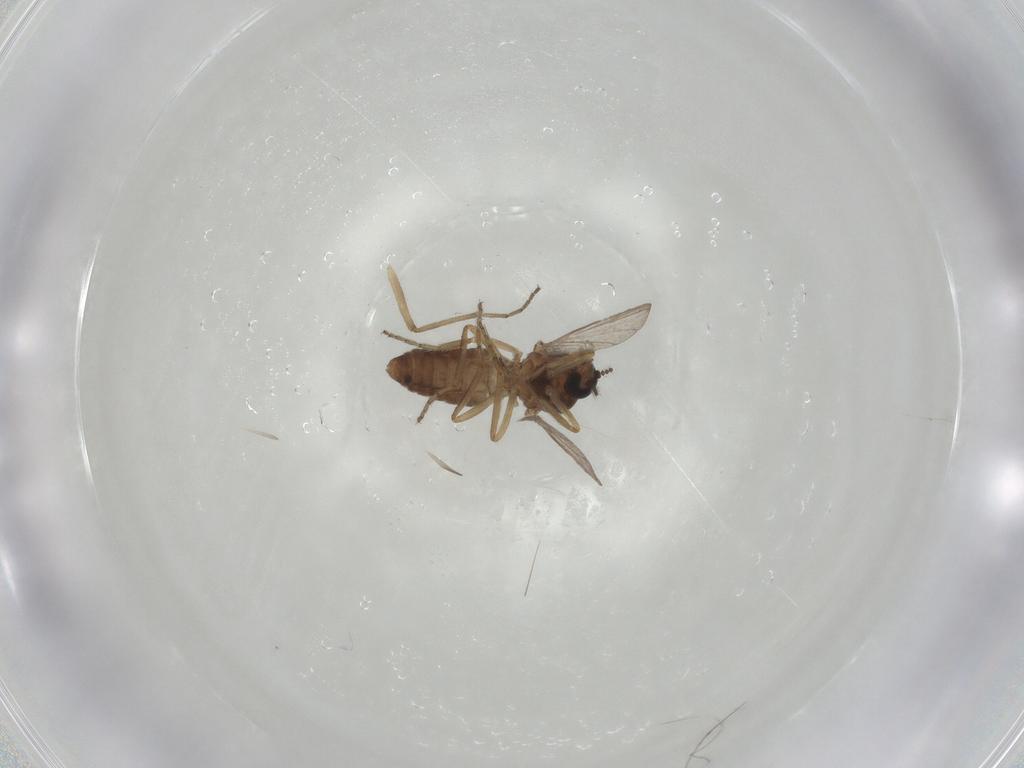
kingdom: Animalia
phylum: Arthropoda
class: Insecta
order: Diptera
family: Ceratopogonidae
